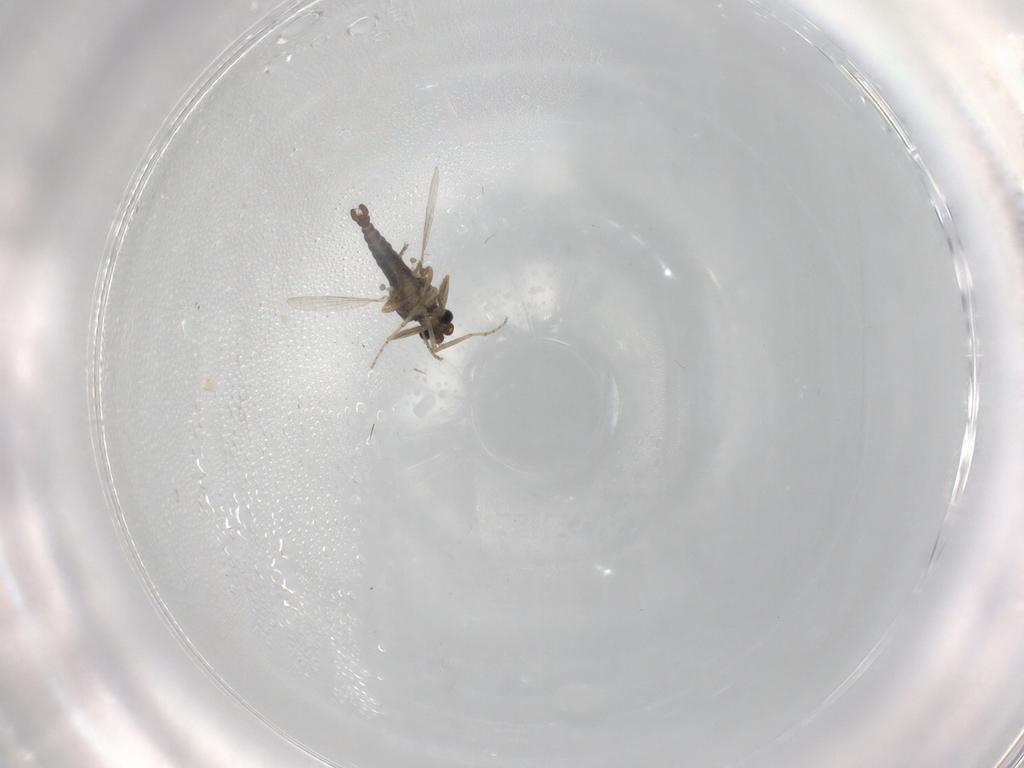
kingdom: Animalia
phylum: Arthropoda
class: Insecta
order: Diptera
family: Ceratopogonidae
